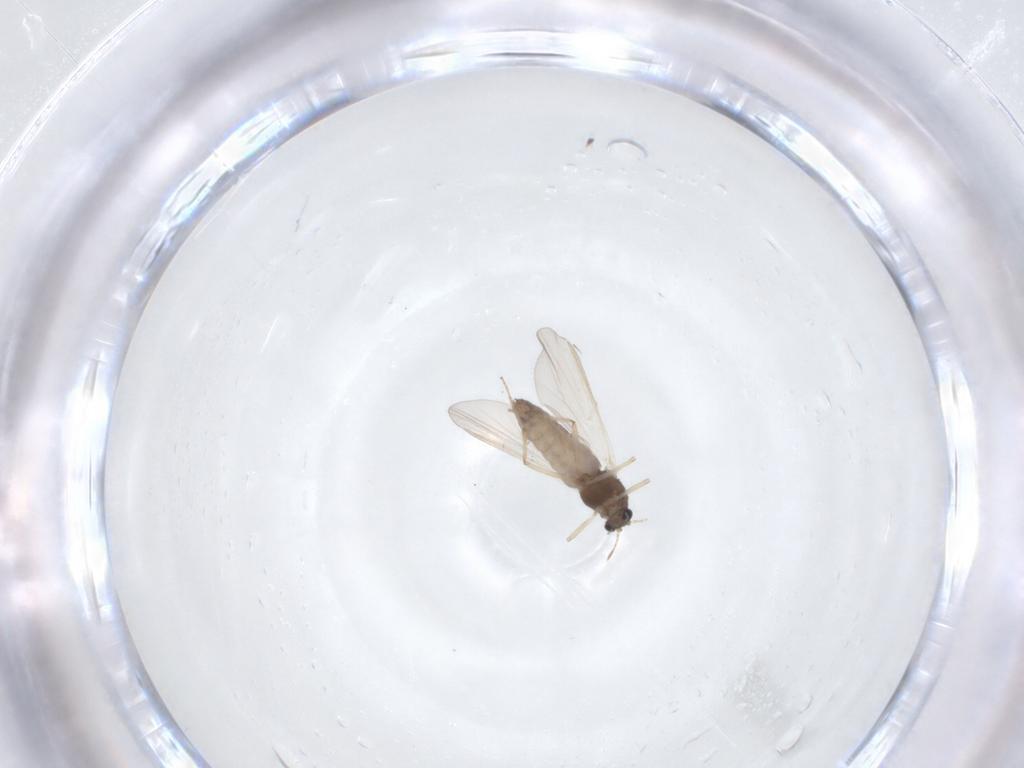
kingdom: Animalia
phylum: Arthropoda
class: Insecta
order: Diptera
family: Chironomidae
